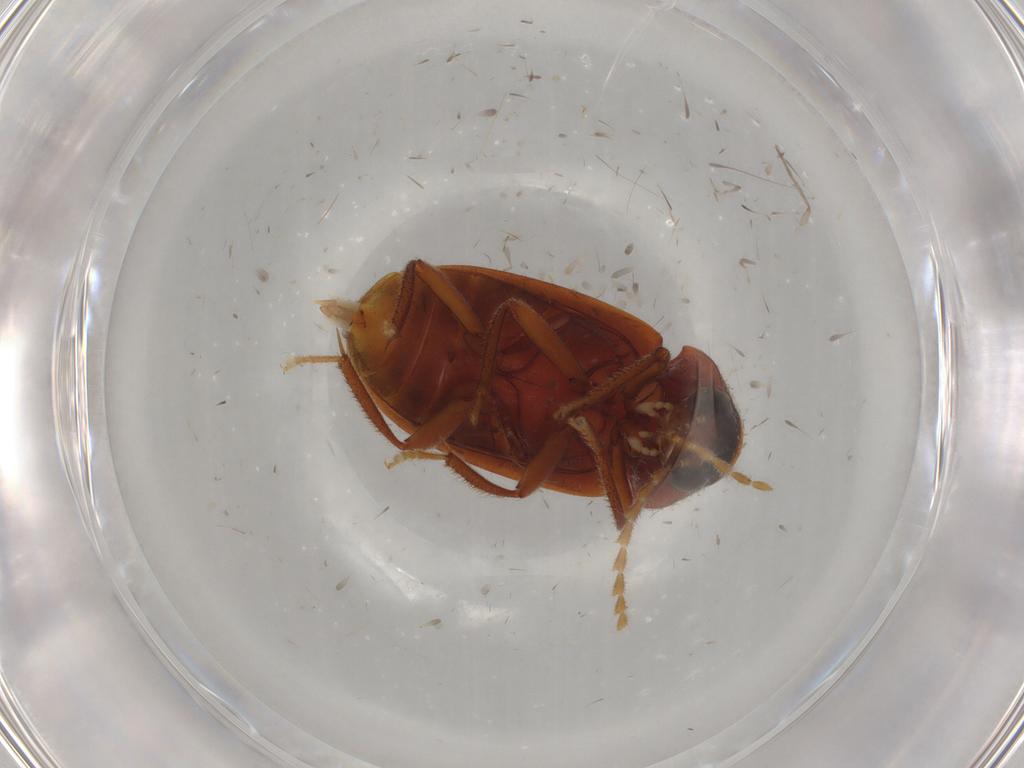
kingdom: Animalia
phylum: Arthropoda
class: Insecta
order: Coleoptera
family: Ptilodactylidae
